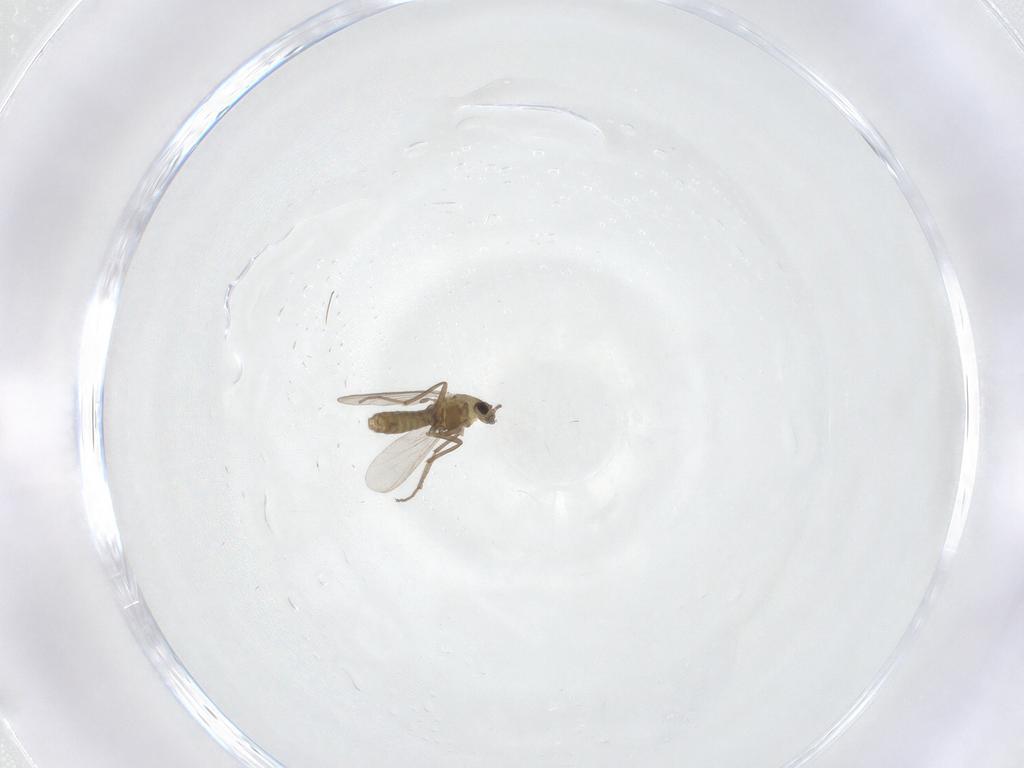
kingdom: Animalia
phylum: Arthropoda
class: Insecta
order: Diptera
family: Chironomidae
